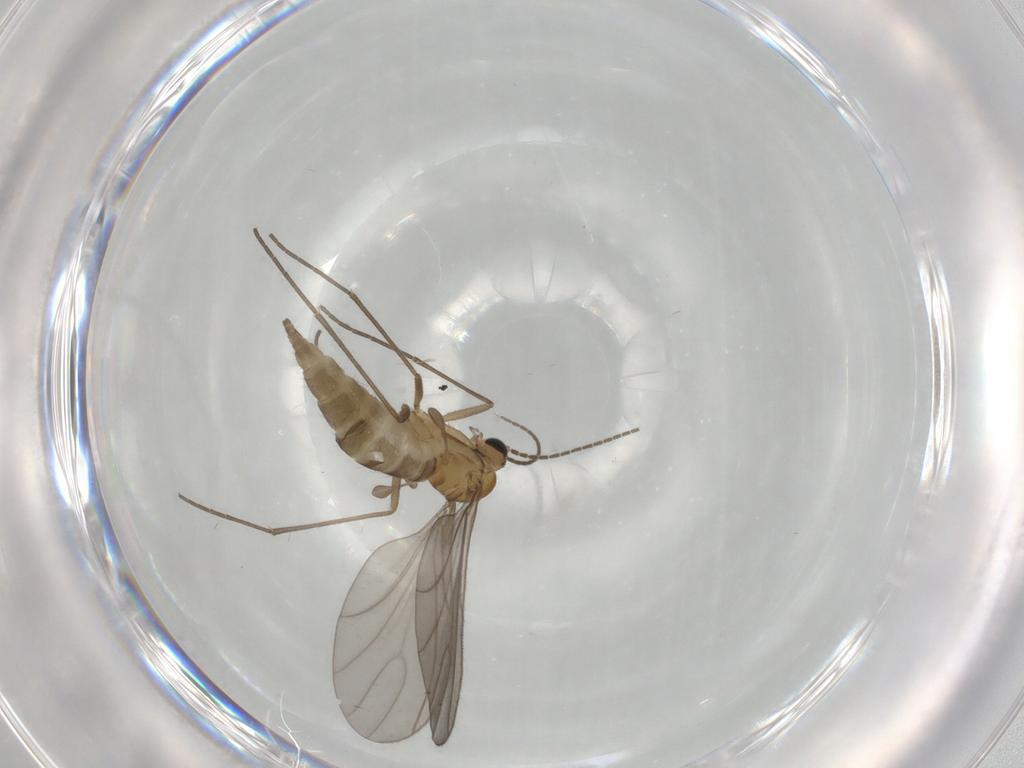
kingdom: Animalia
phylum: Arthropoda
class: Insecta
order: Diptera
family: Sciaridae
